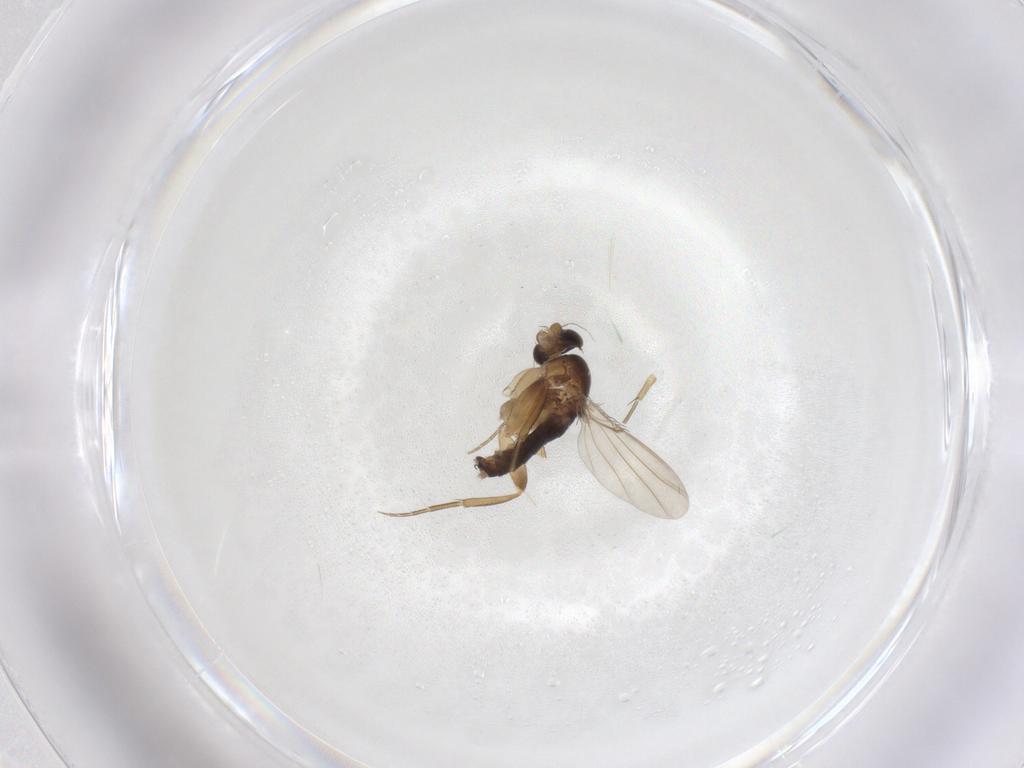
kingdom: Animalia
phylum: Arthropoda
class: Insecta
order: Diptera
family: Phoridae
